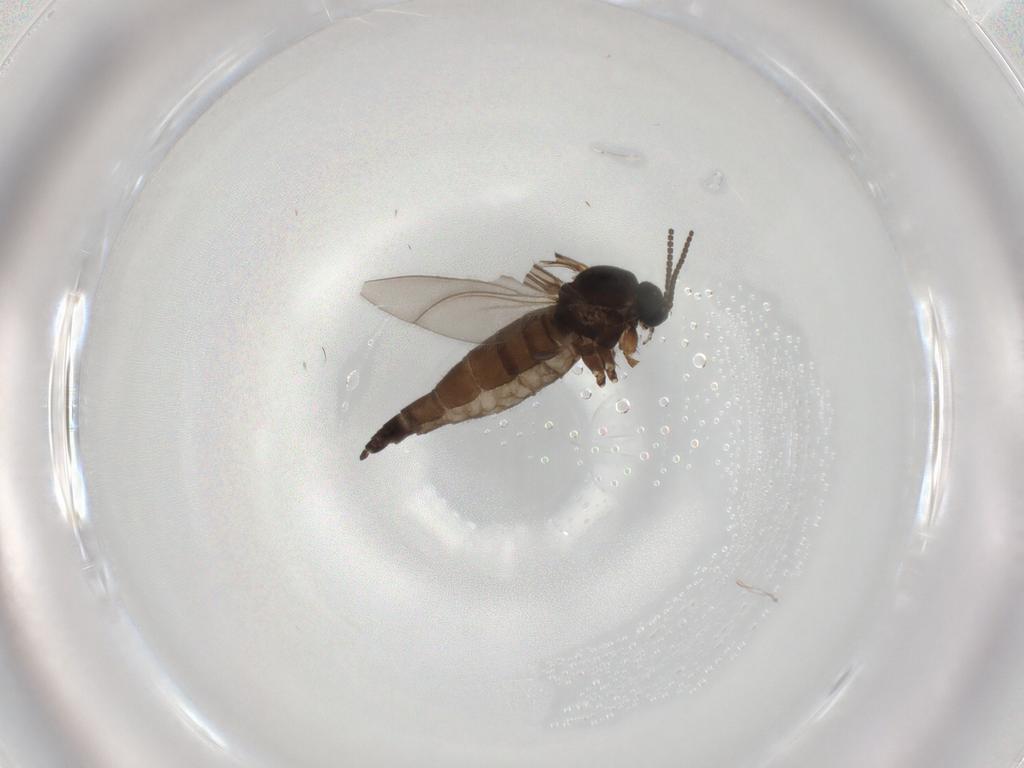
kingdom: Animalia
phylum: Arthropoda
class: Insecta
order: Diptera
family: Sciaridae
